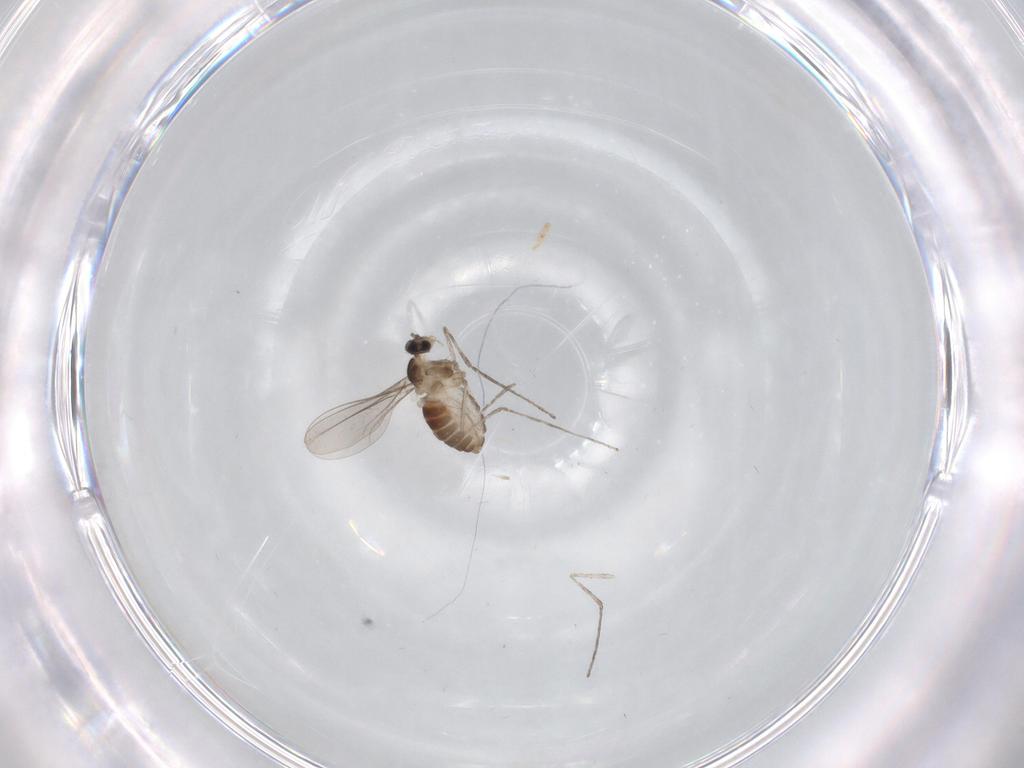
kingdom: Animalia
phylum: Arthropoda
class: Insecta
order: Diptera
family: Cecidomyiidae
